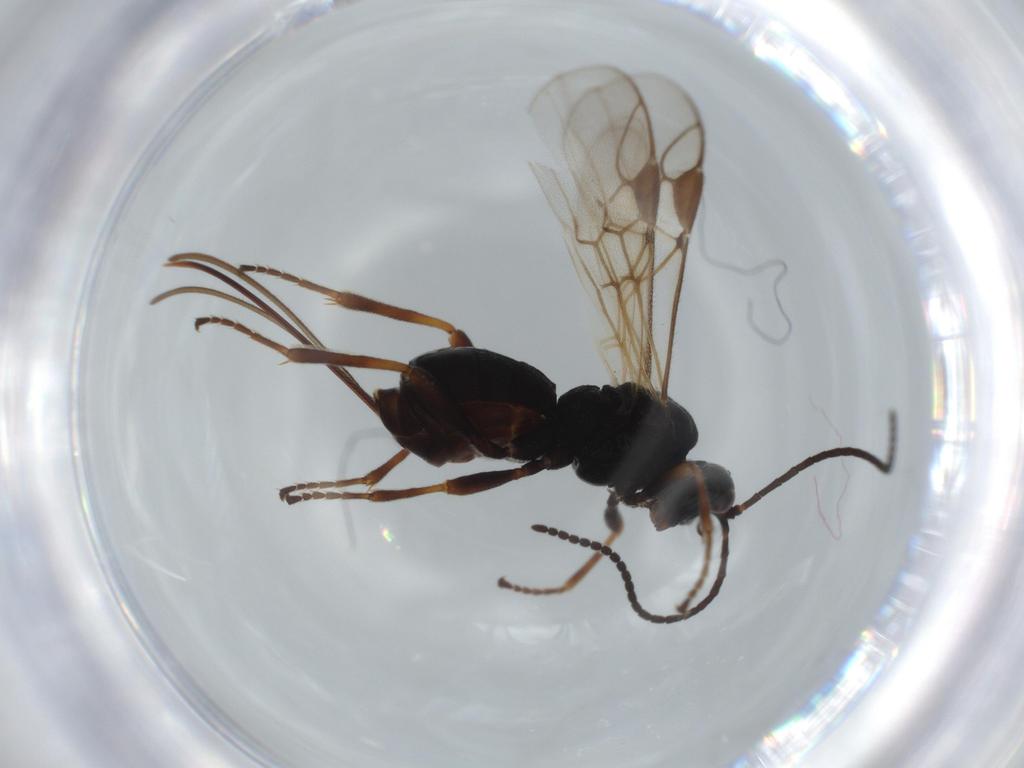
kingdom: Animalia
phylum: Arthropoda
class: Insecta
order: Hymenoptera
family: Braconidae
